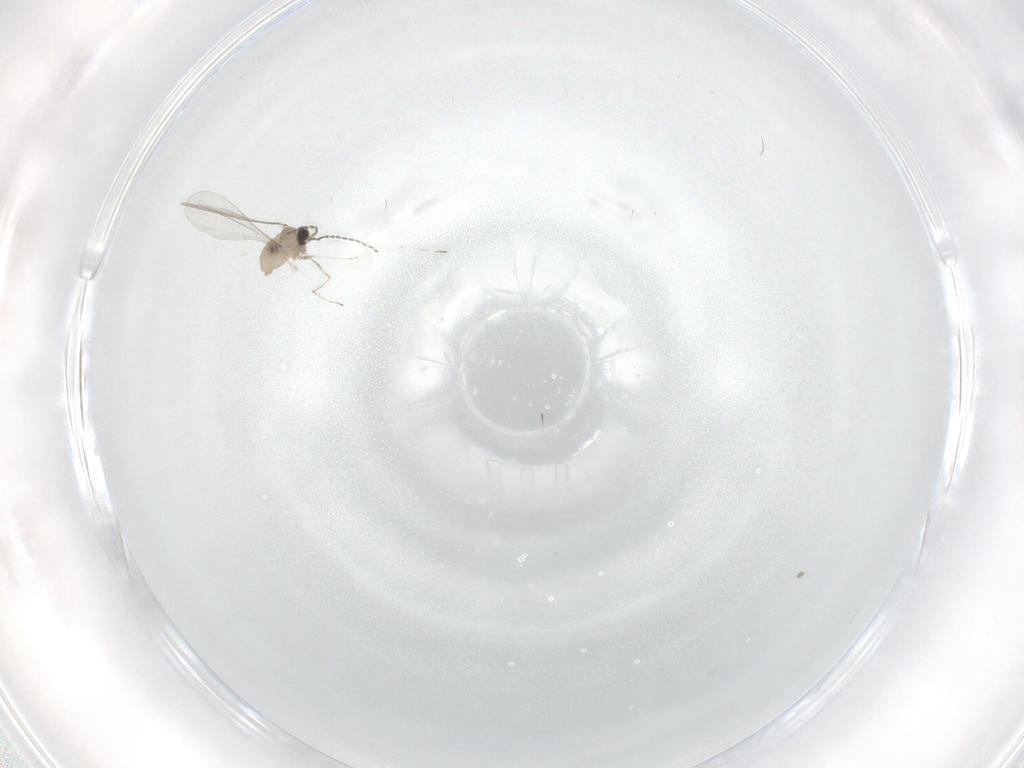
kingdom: Animalia
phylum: Arthropoda
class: Insecta
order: Diptera
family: Cecidomyiidae
